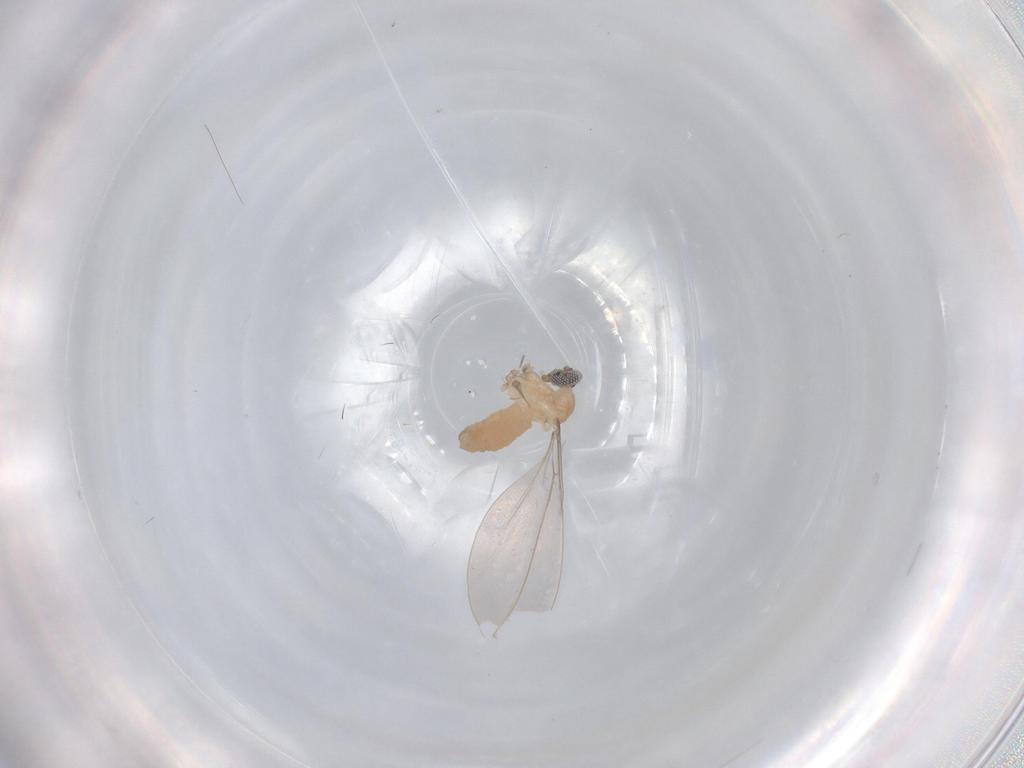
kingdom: Animalia
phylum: Arthropoda
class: Insecta
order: Diptera
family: Cecidomyiidae
